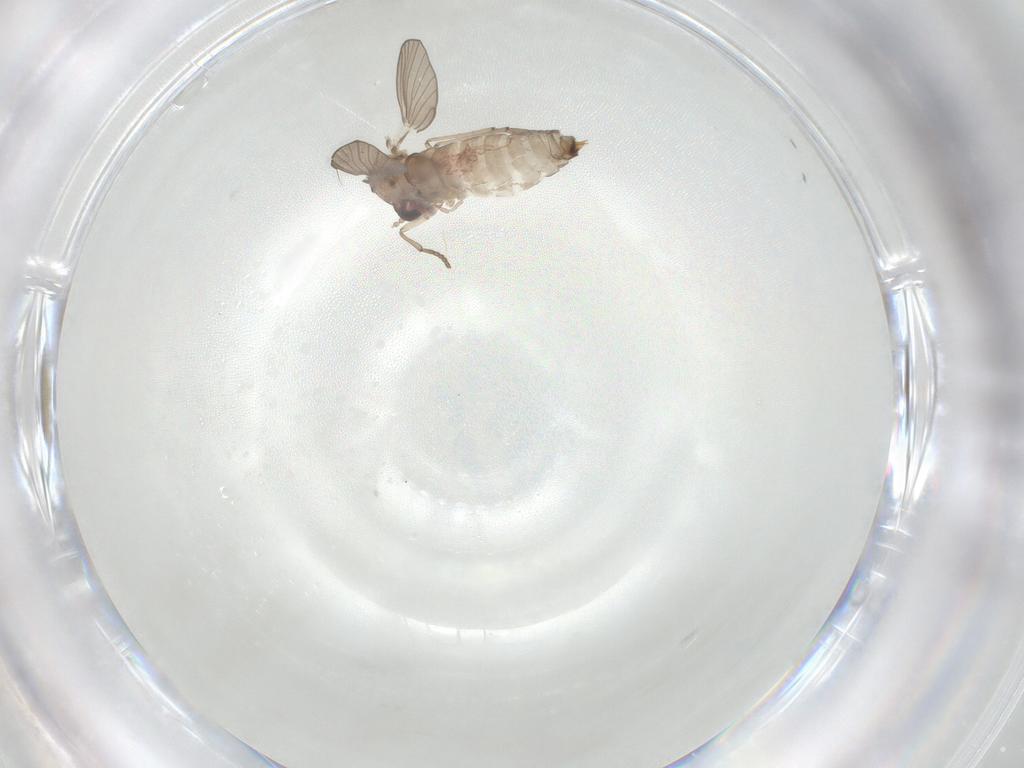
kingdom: Animalia
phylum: Arthropoda
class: Insecta
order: Diptera
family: Psychodidae
